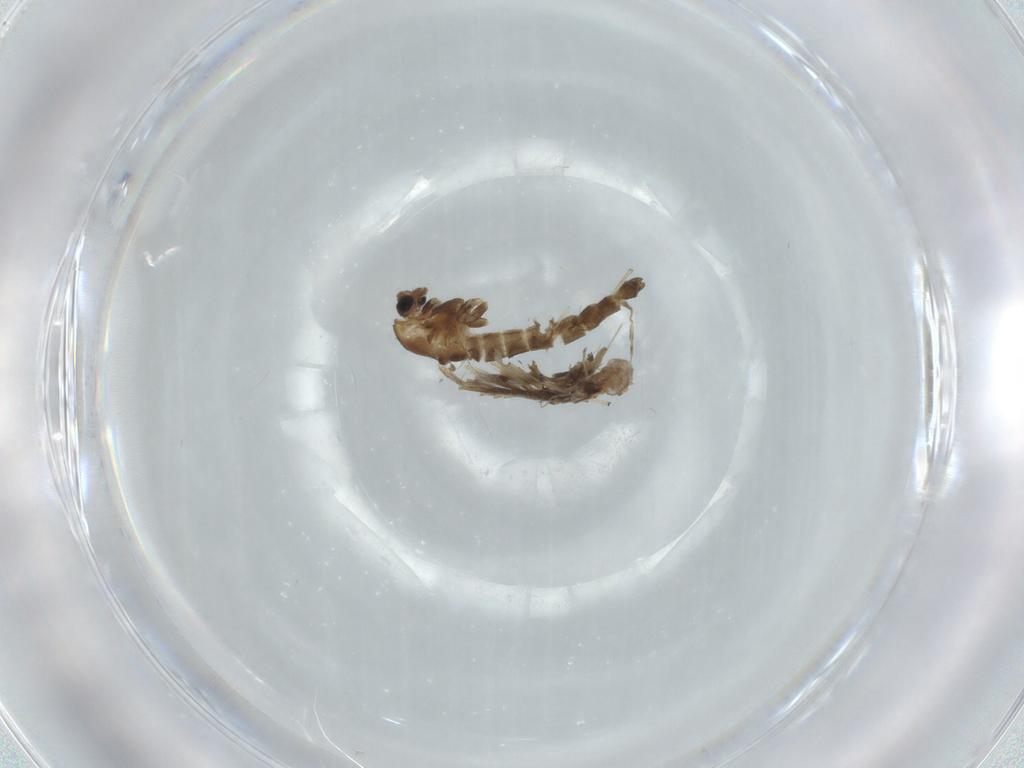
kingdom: Animalia
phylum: Arthropoda
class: Insecta
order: Diptera
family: Chironomidae
